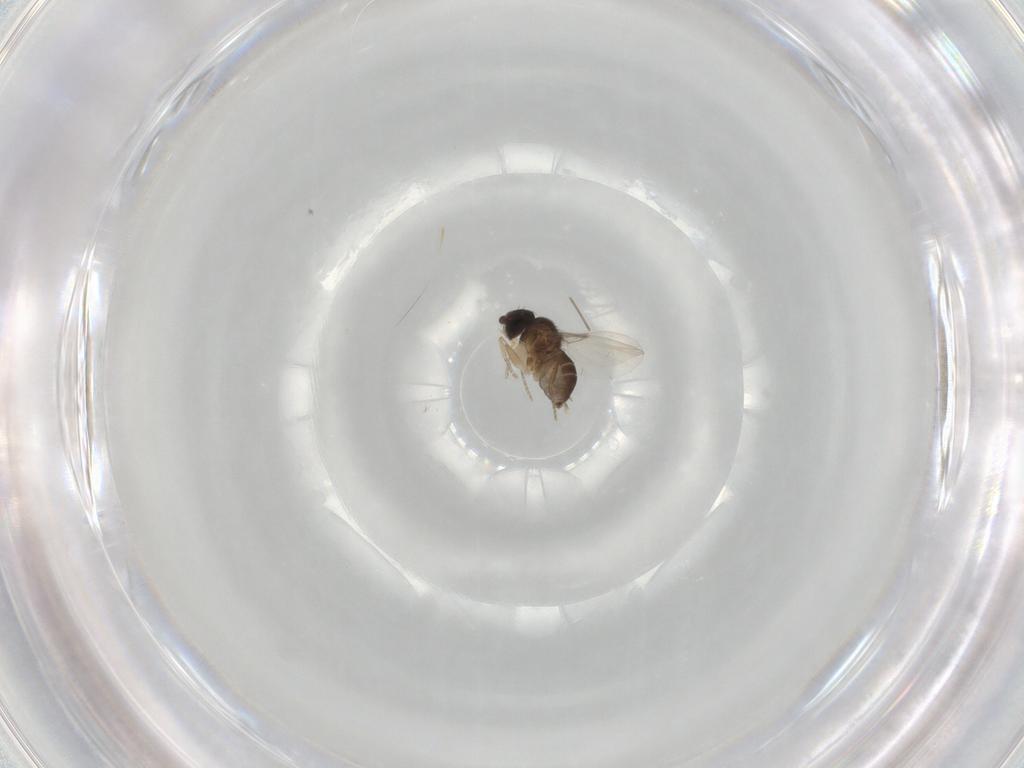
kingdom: Animalia
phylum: Arthropoda
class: Insecta
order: Diptera
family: Phoridae
